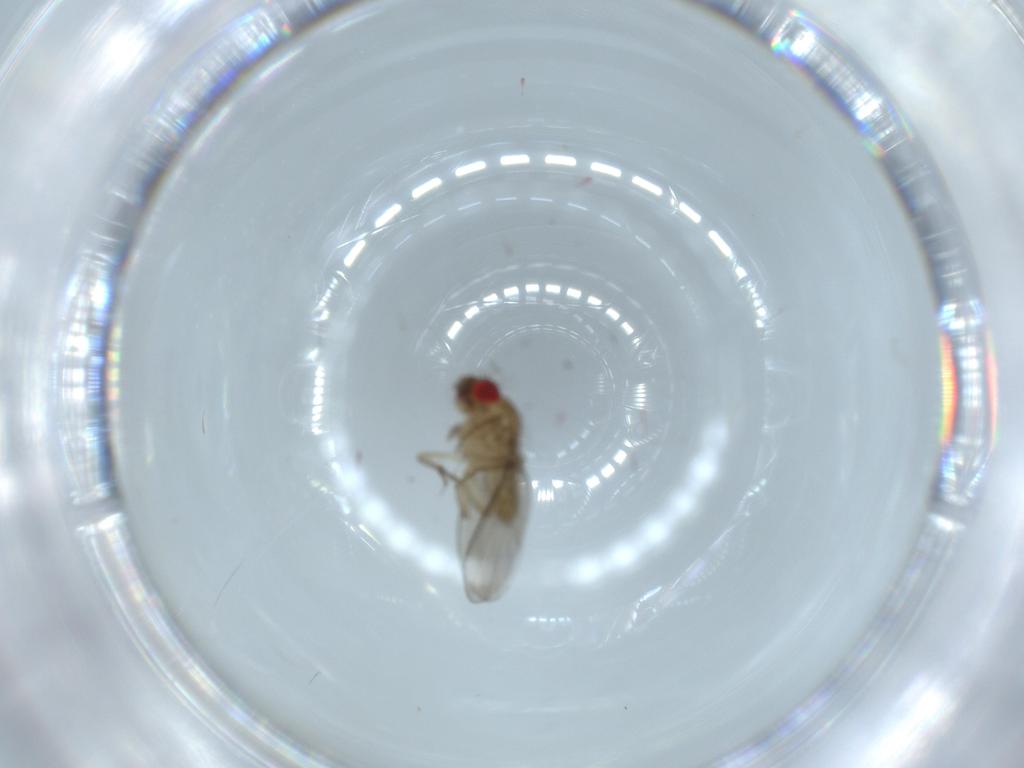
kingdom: Animalia
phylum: Arthropoda
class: Insecta
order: Diptera
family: Drosophilidae
